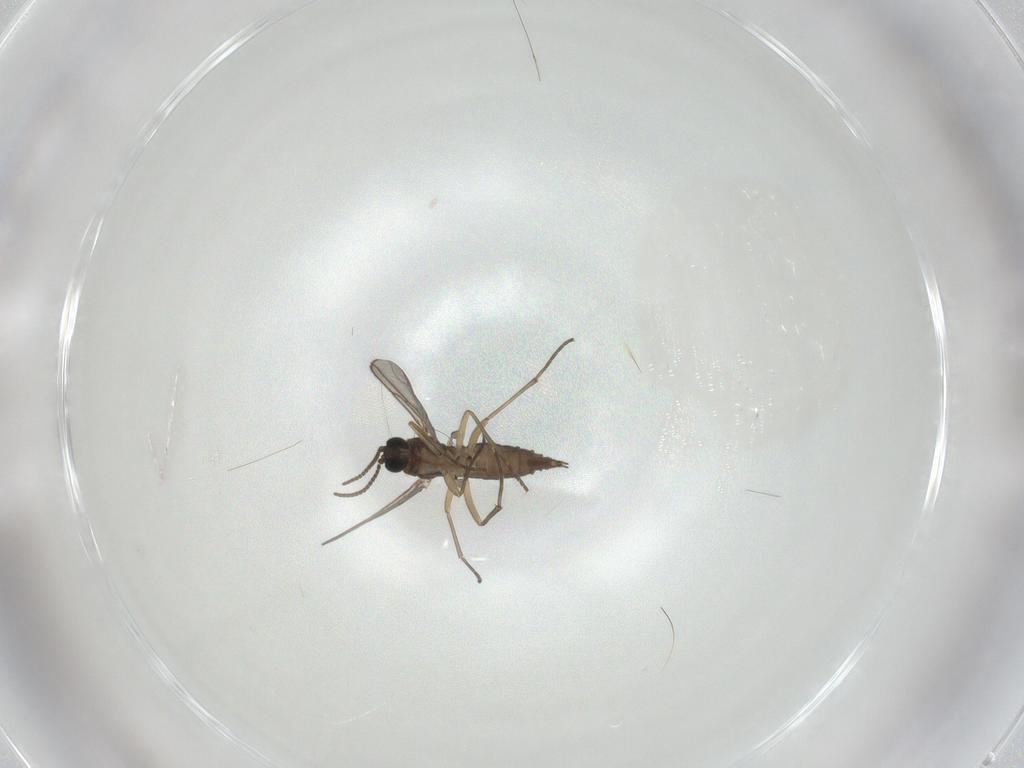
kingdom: Animalia
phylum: Arthropoda
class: Insecta
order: Diptera
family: Sciaridae
